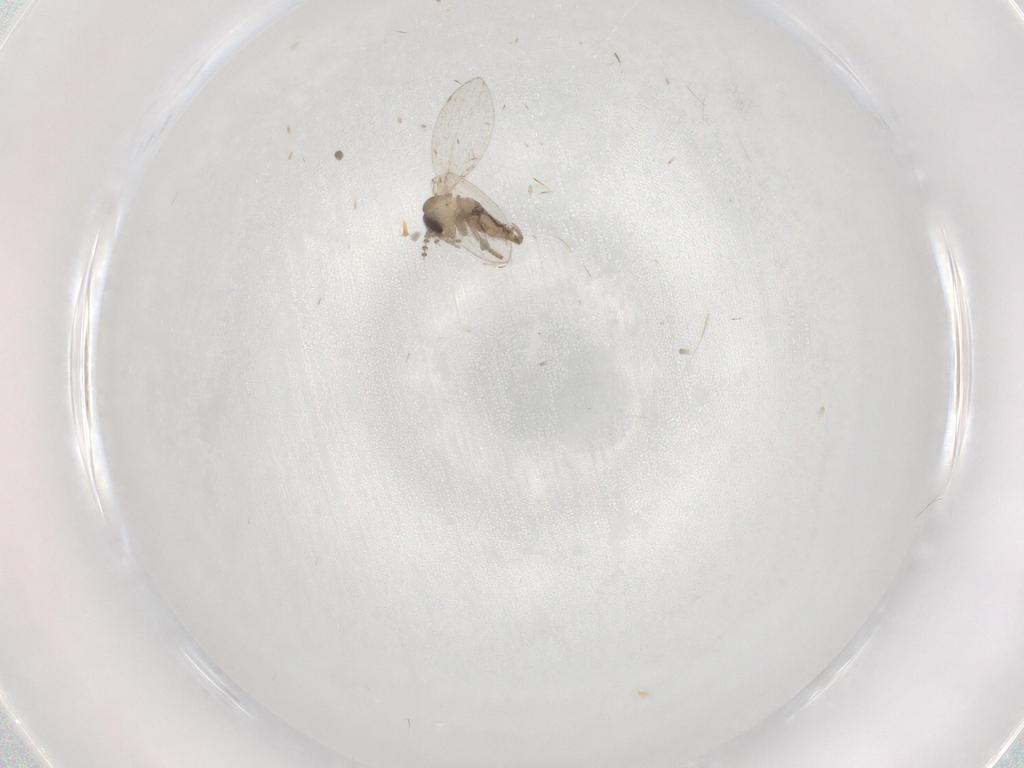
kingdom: Animalia
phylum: Arthropoda
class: Insecta
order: Diptera
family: Psychodidae
